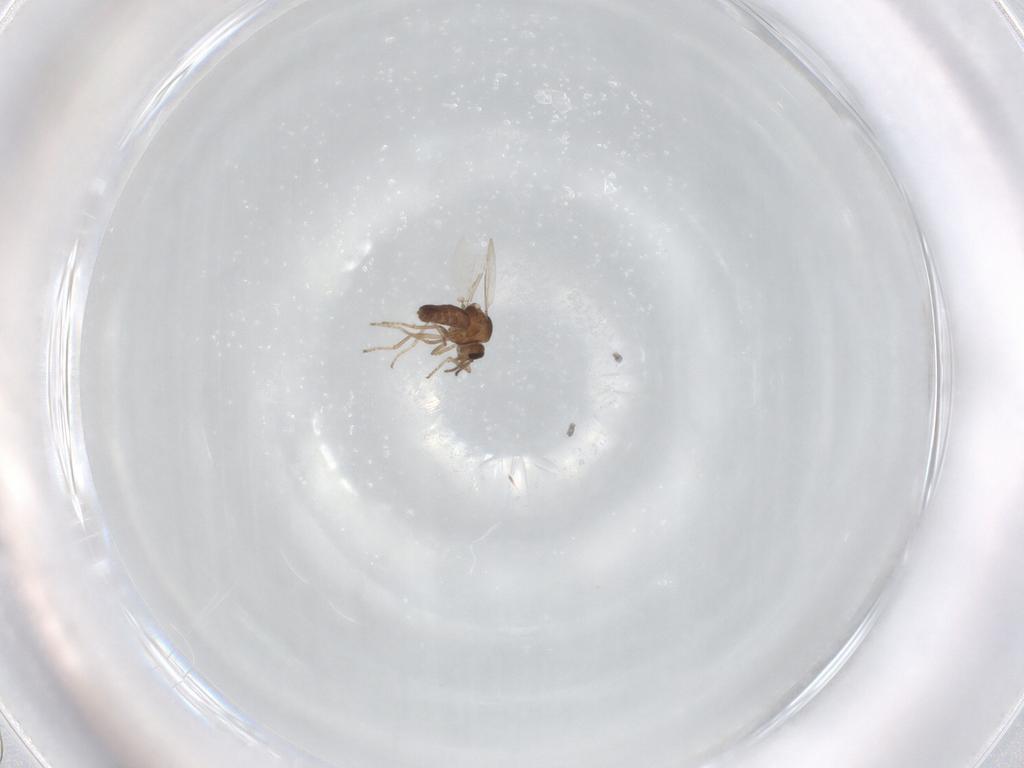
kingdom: Animalia
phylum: Arthropoda
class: Insecta
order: Diptera
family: Ceratopogonidae
